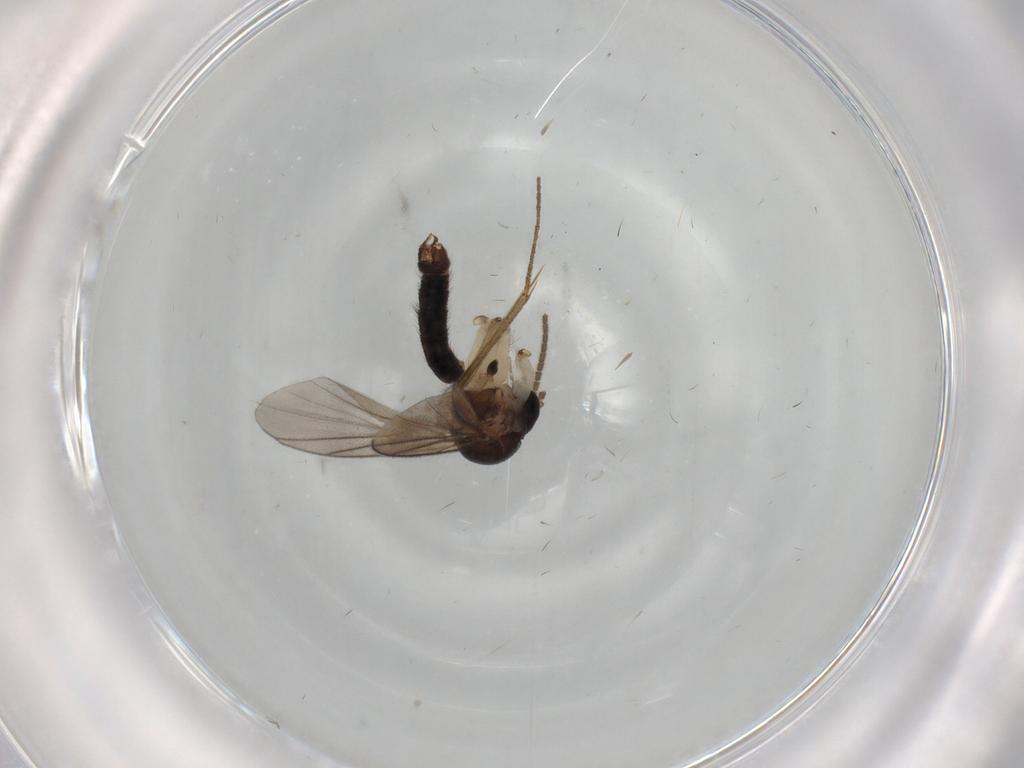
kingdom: Animalia
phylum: Arthropoda
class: Insecta
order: Diptera
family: Mycetophilidae
